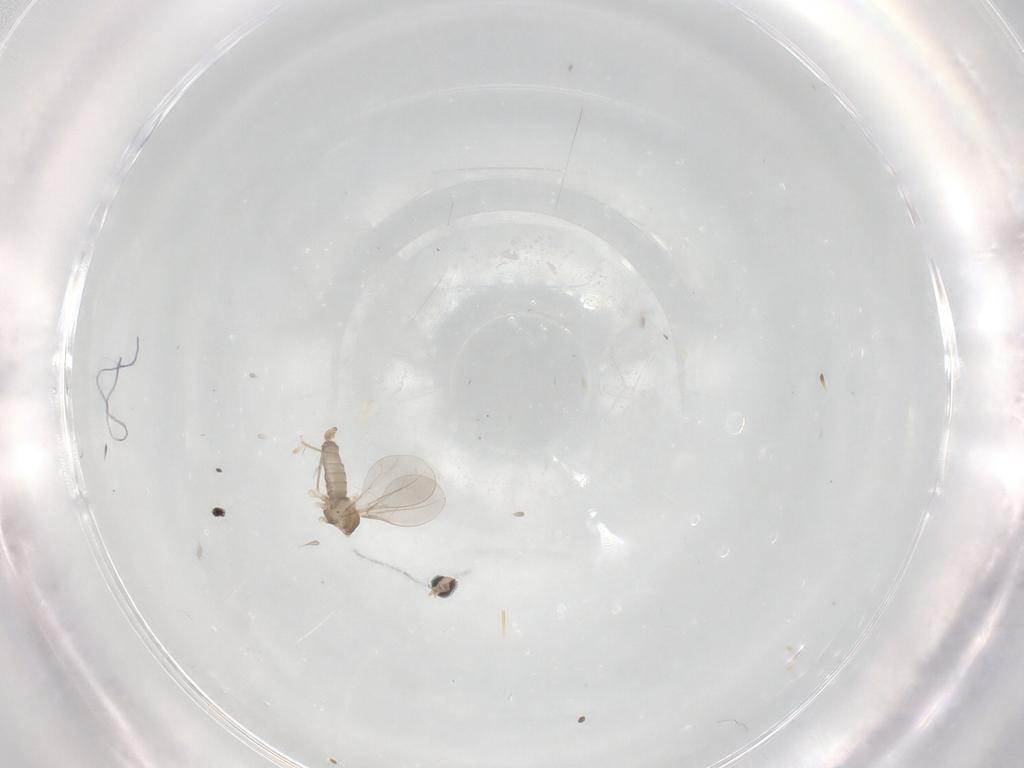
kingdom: Animalia
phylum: Arthropoda
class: Insecta
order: Diptera
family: Cecidomyiidae
